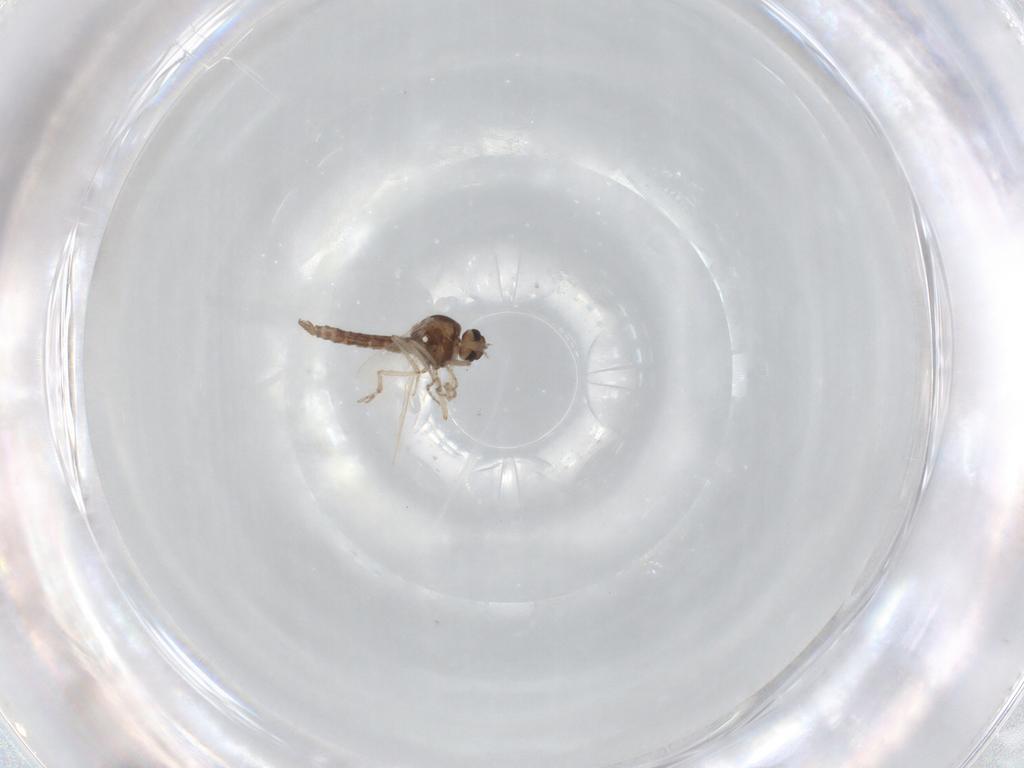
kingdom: Animalia
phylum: Arthropoda
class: Insecta
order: Diptera
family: Ceratopogonidae
